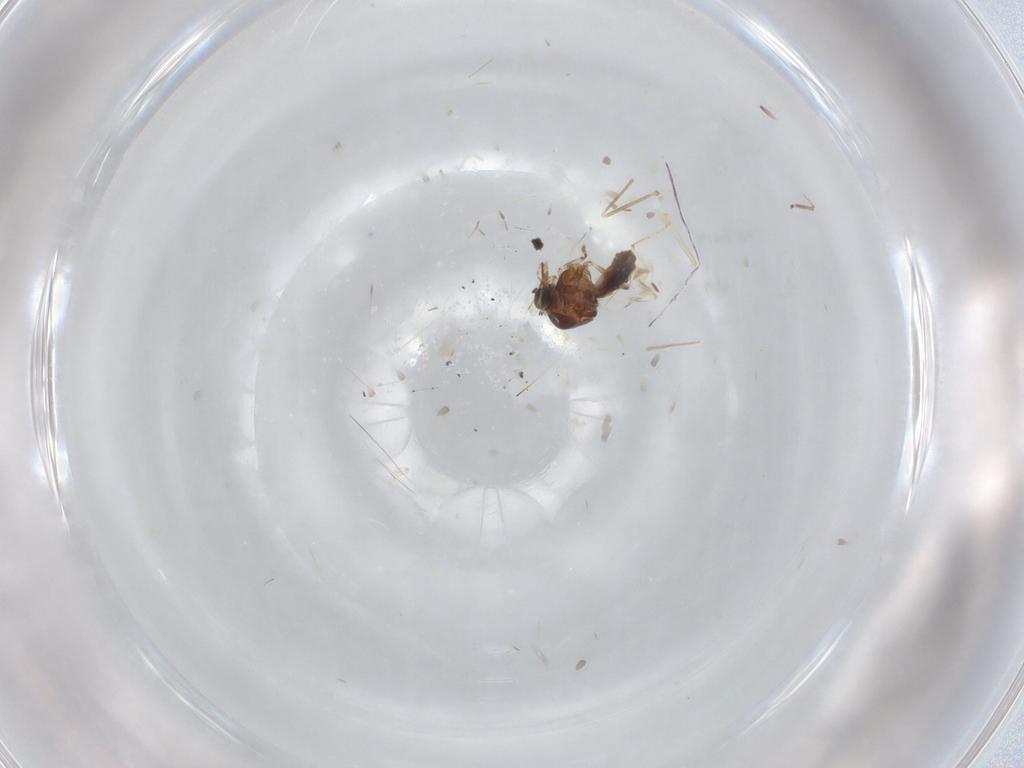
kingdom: Animalia
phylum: Arthropoda
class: Insecta
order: Diptera
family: Ceratopogonidae
